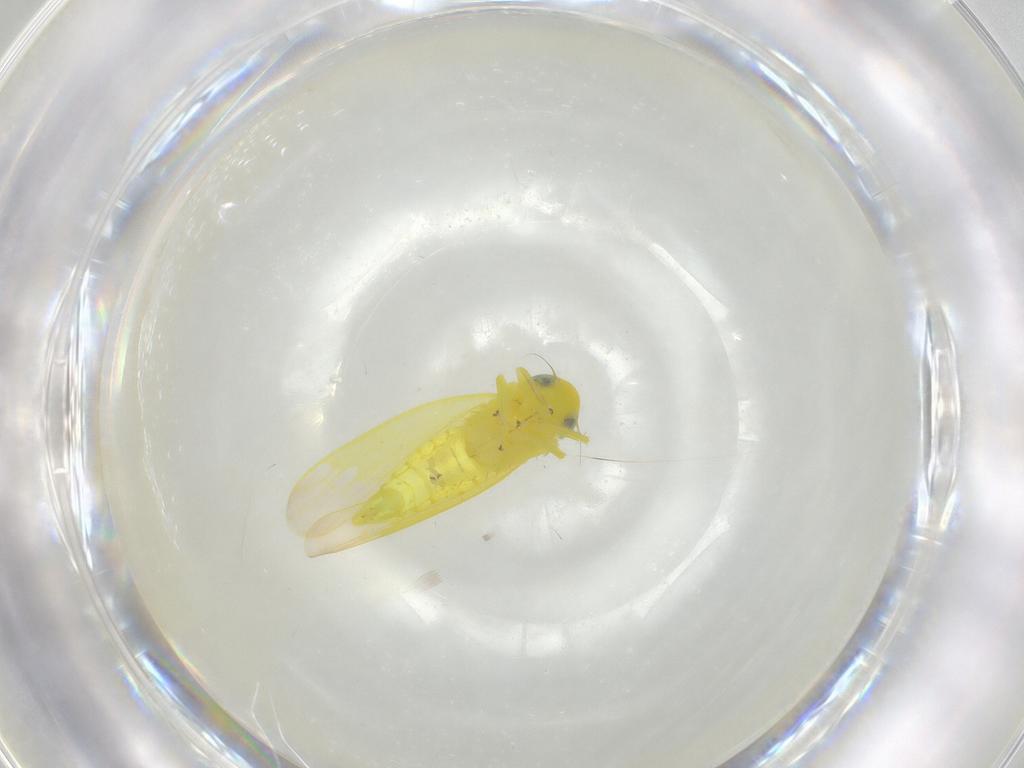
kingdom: Animalia
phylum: Arthropoda
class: Insecta
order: Hemiptera
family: Cicadellidae
